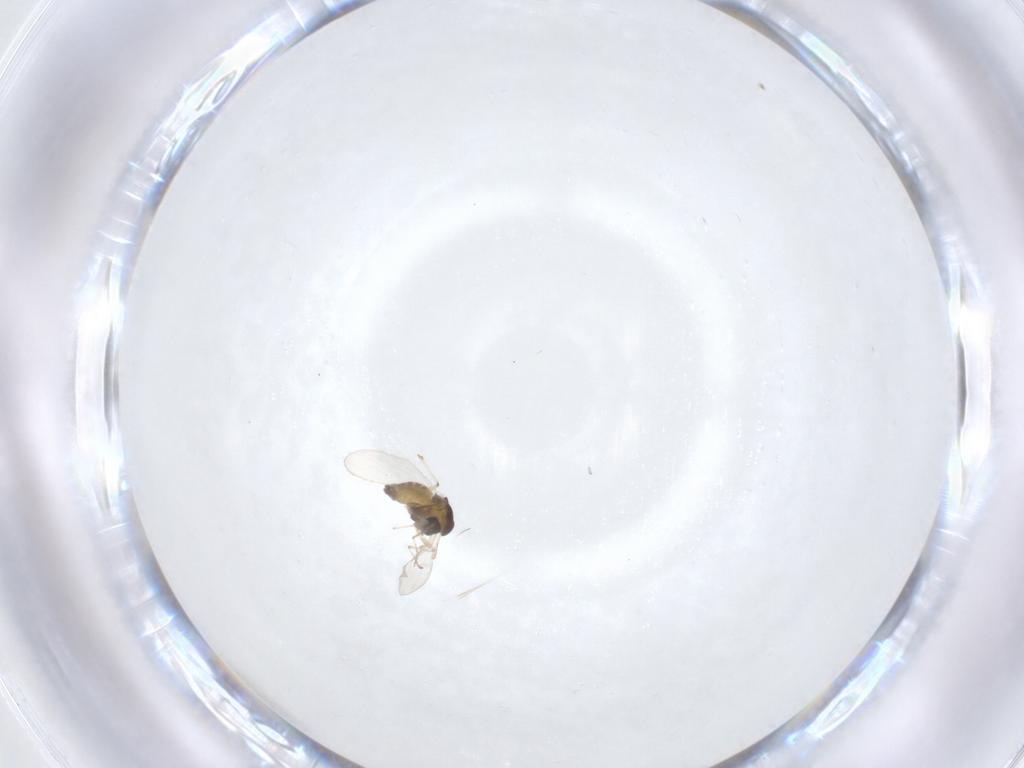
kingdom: Animalia
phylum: Arthropoda
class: Insecta
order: Diptera
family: Chironomidae
